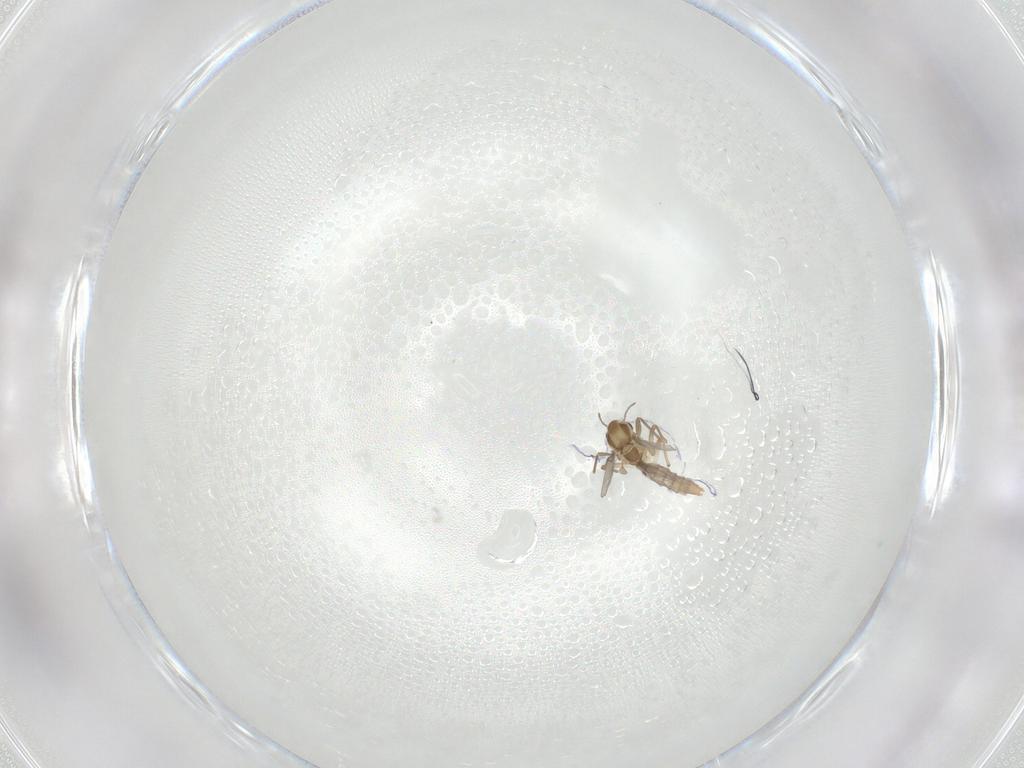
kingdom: Animalia
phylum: Arthropoda
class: Insecta
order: Diptera
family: Chironomidae
